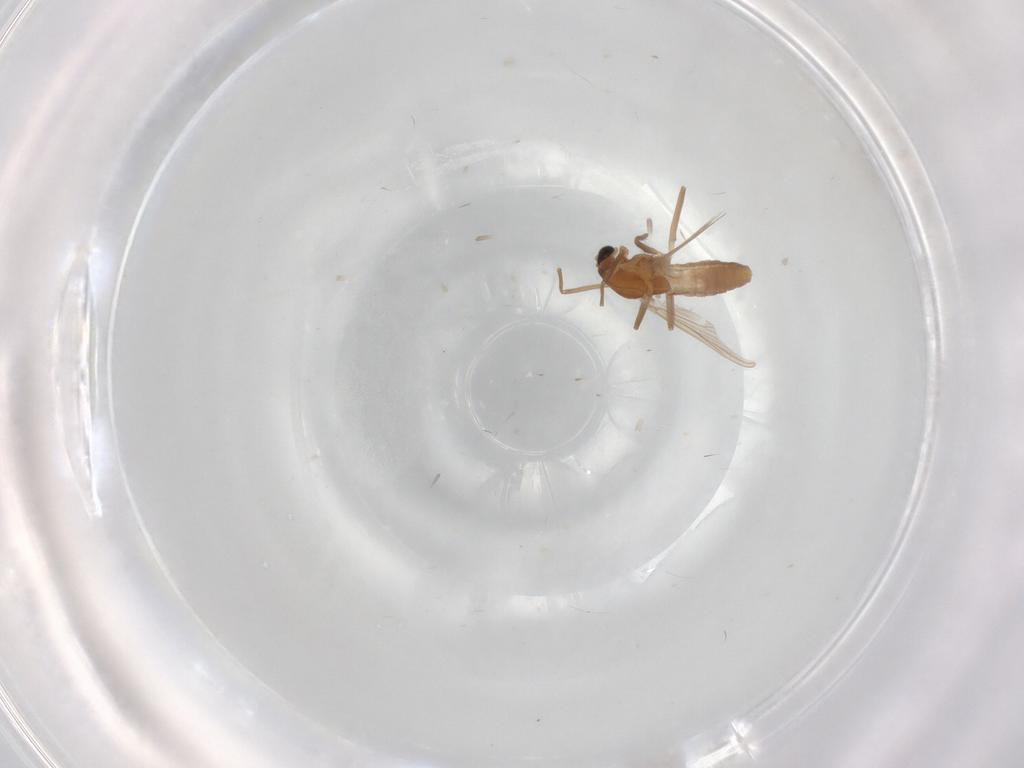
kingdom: Animalia
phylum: Arthropoda
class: Insecta
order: Diptera
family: Chironomidae
